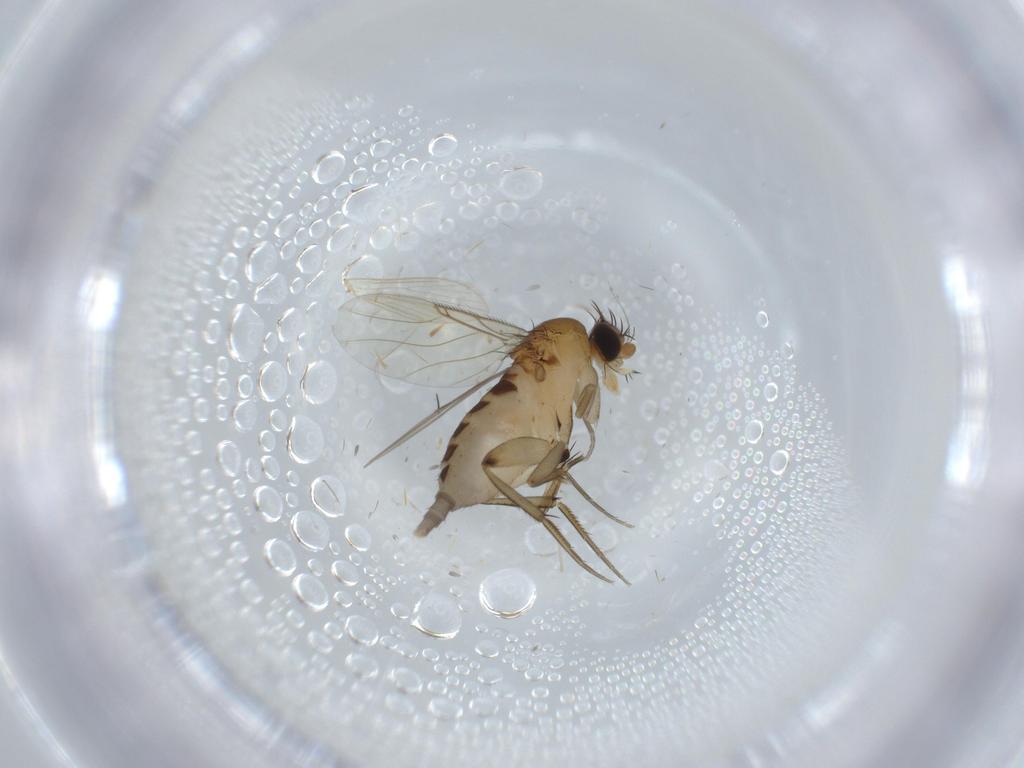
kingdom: Animalia
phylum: Arthropoda
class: Insecta
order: Diptera
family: Phoridae
